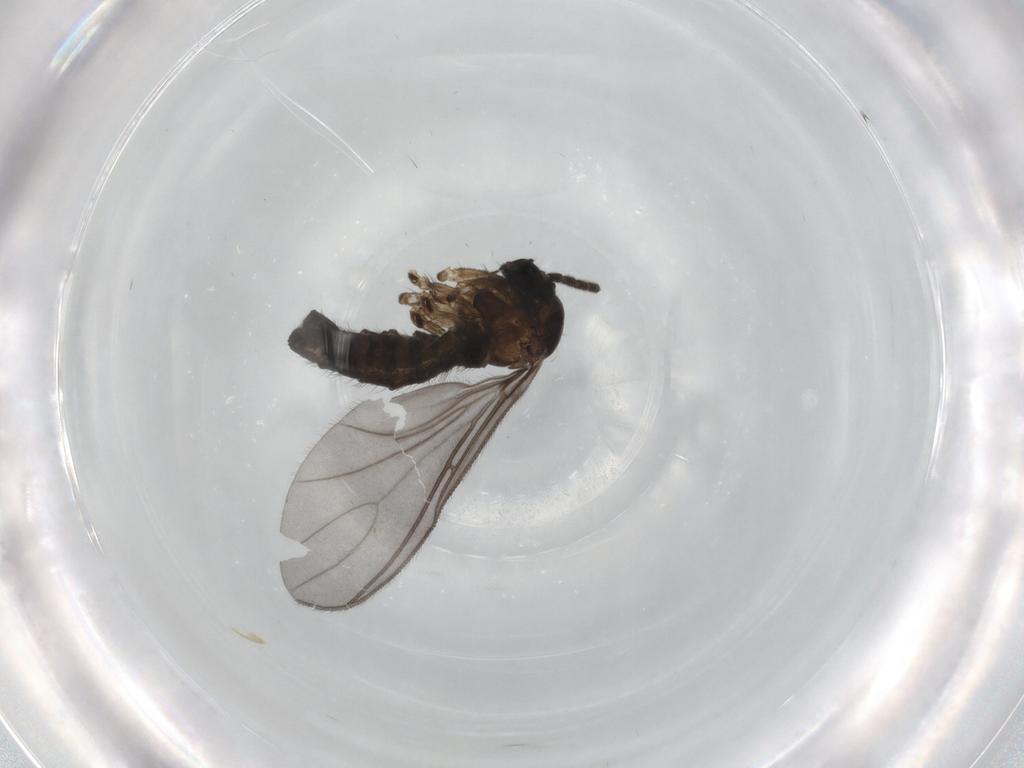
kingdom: Animalia
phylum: Arthropoda
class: Insecta
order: Diptera
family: Sciaridae
